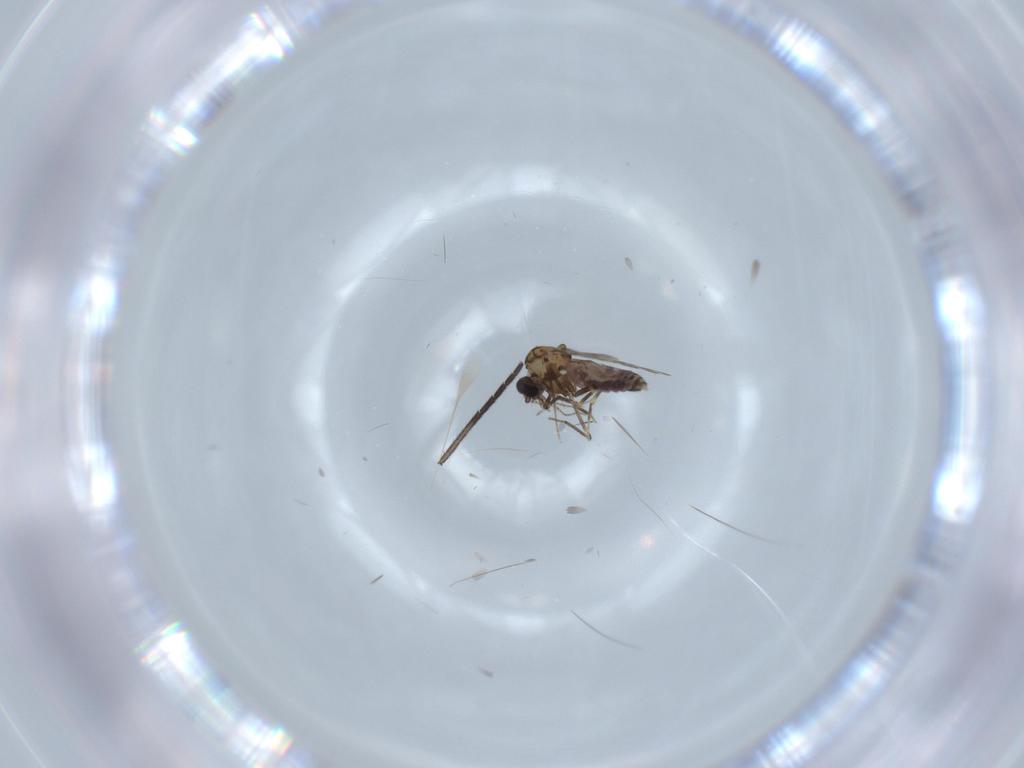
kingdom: Animalia
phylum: Arthropoda
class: Insecta
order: Diptera
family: Ceratopogonidae
